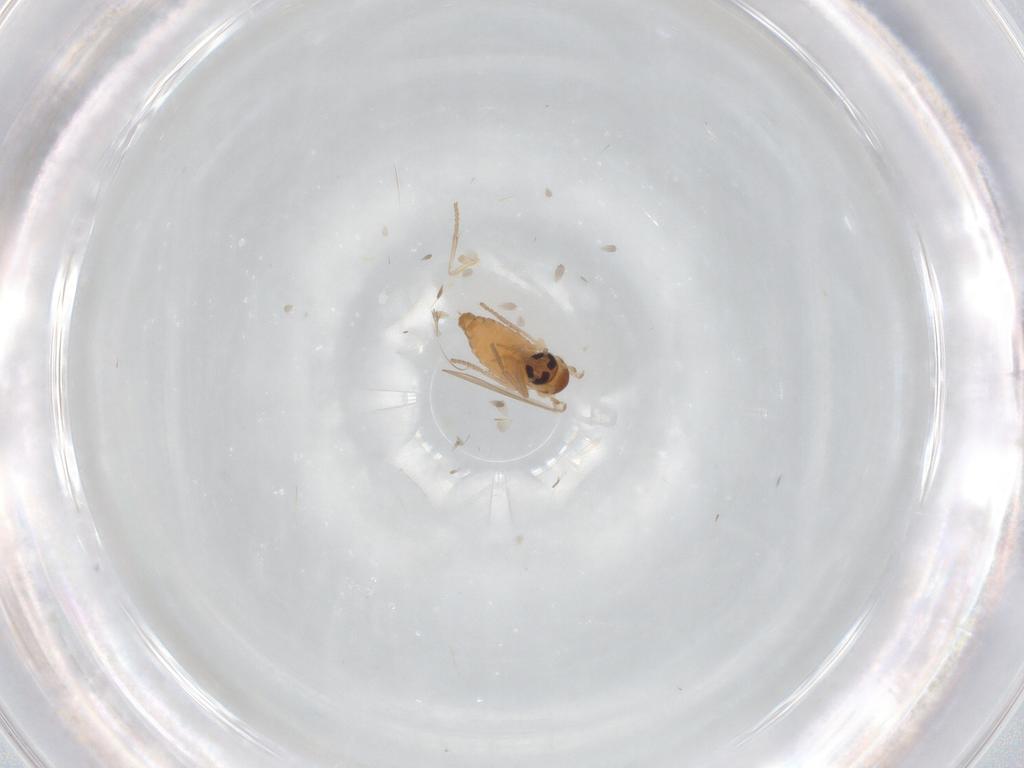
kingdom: Animalia
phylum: Arthropoda
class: Insecta
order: Diptera
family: Psychodidae
